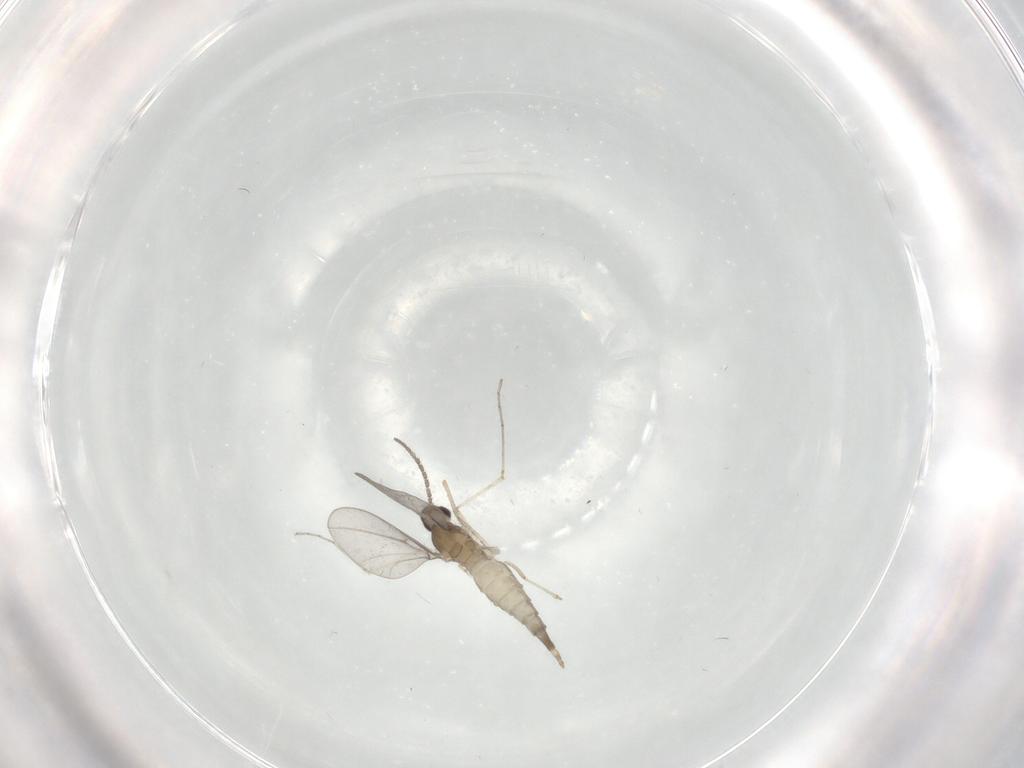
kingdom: Animalia
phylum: Arthropoda
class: Insecta
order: Diptera
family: Cecidomyiidae
